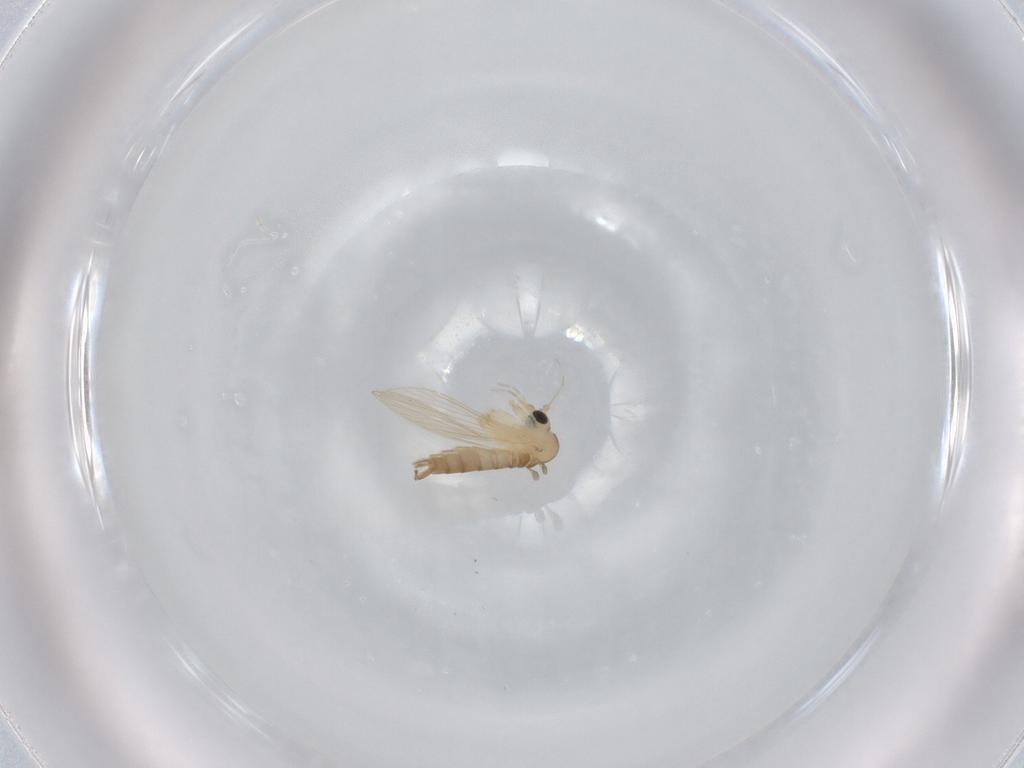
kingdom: Animalia
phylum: Arthropoda
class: Insecta
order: Diptera
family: Psychodidae
